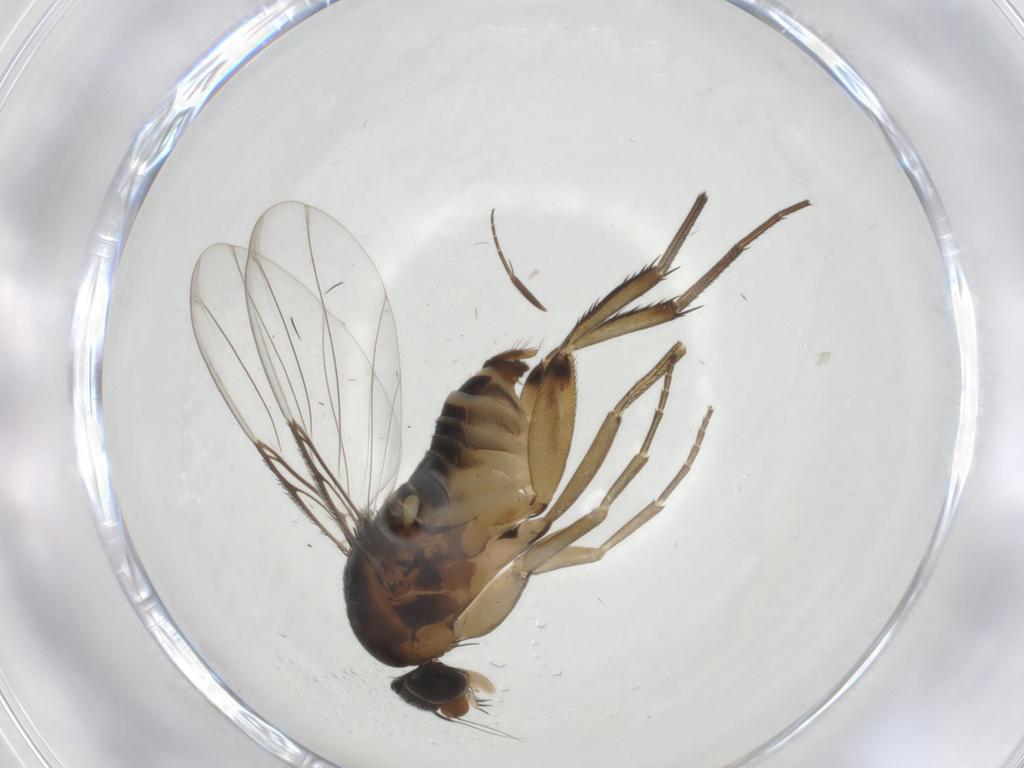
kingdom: Animalia
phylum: Arthropoda
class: Insecta
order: Diptera
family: Phoridae
